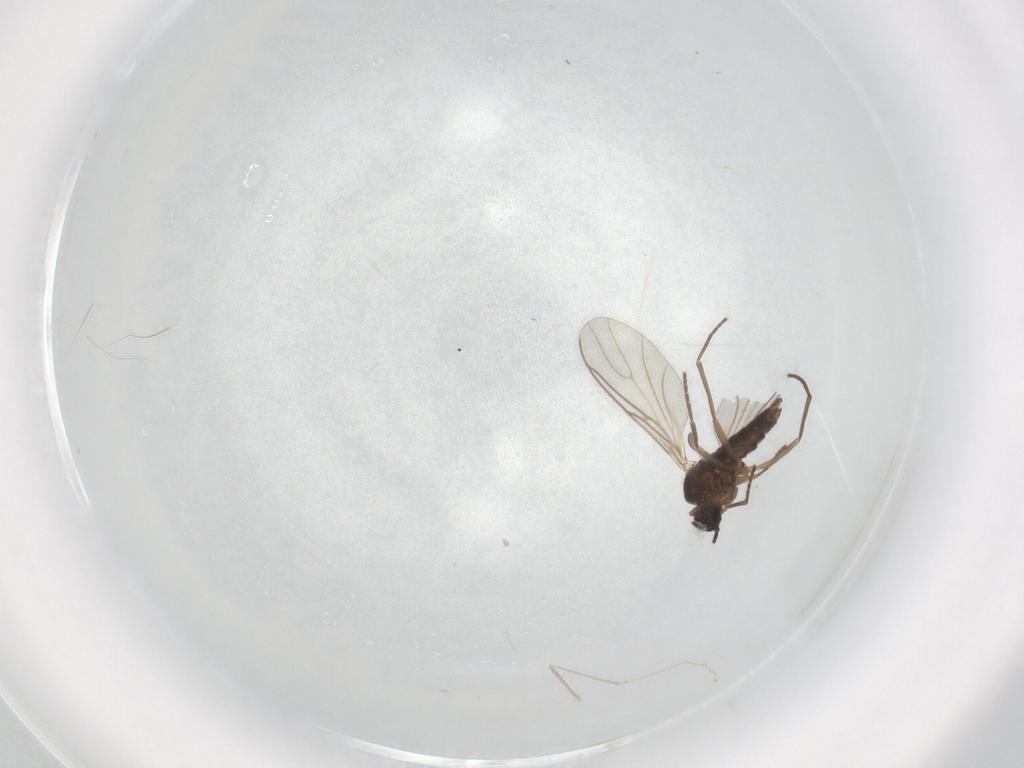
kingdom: Animalia
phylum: Arthropoda
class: Insecta
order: Diptera
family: Sciaridae
